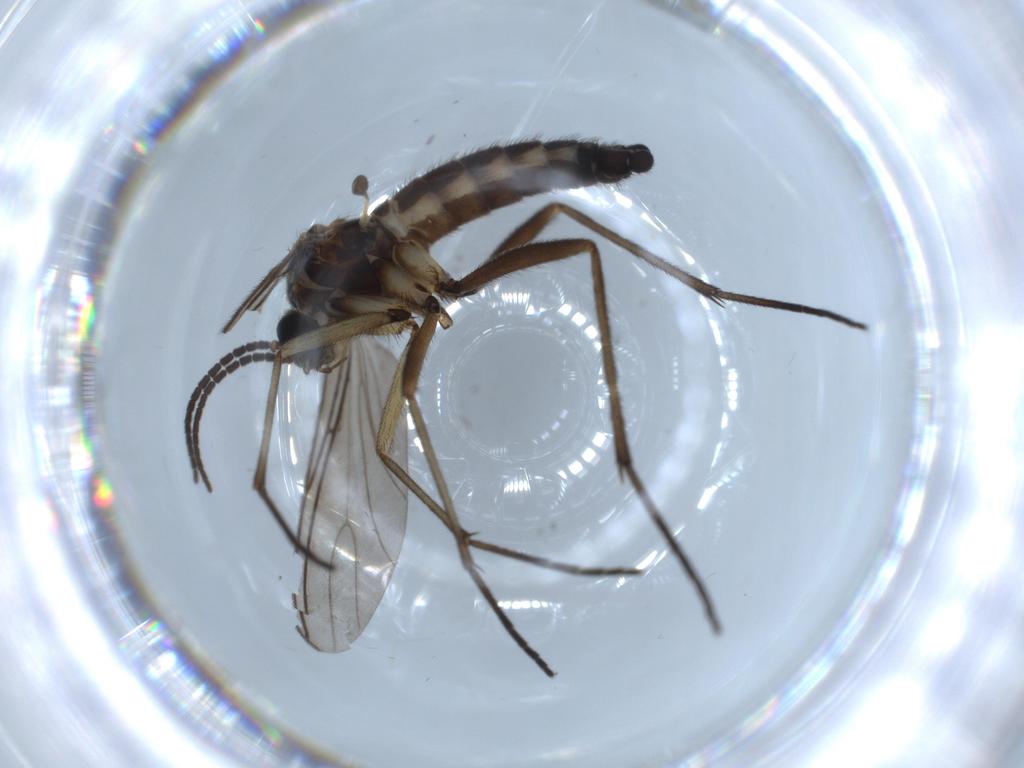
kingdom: Animalia
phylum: Arthropoda
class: Insecta
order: Diptera
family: Sciaridae
